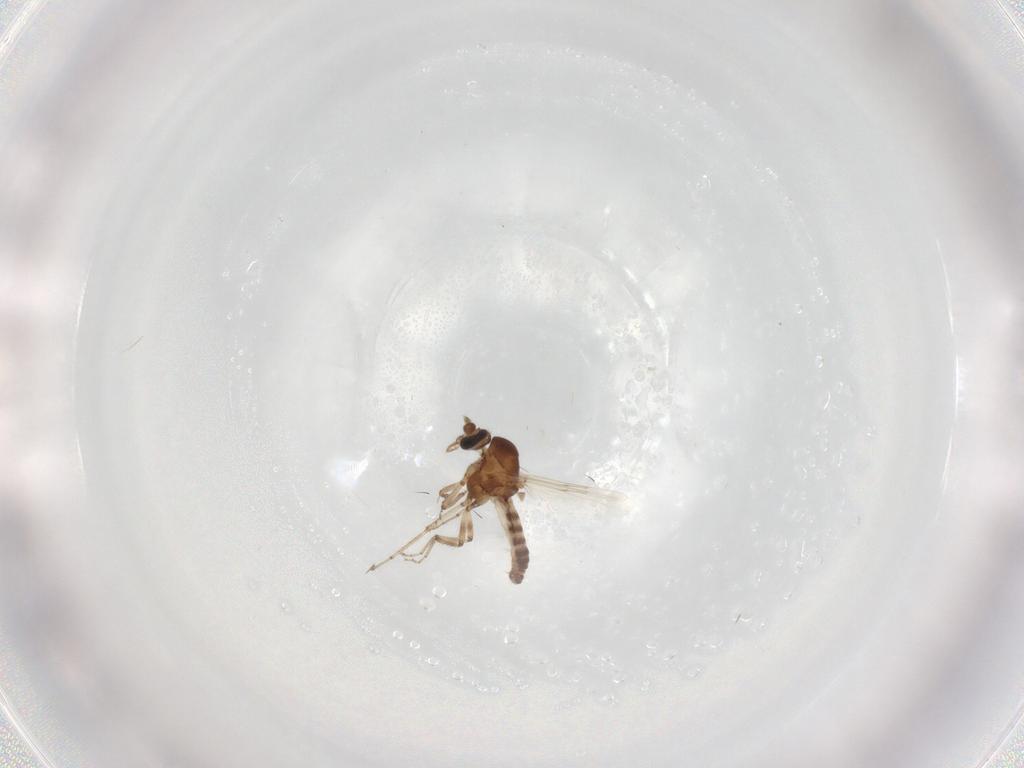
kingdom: Animalia
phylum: Arthropoda
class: Insecta
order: Diptera
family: Ceratopogonidae
